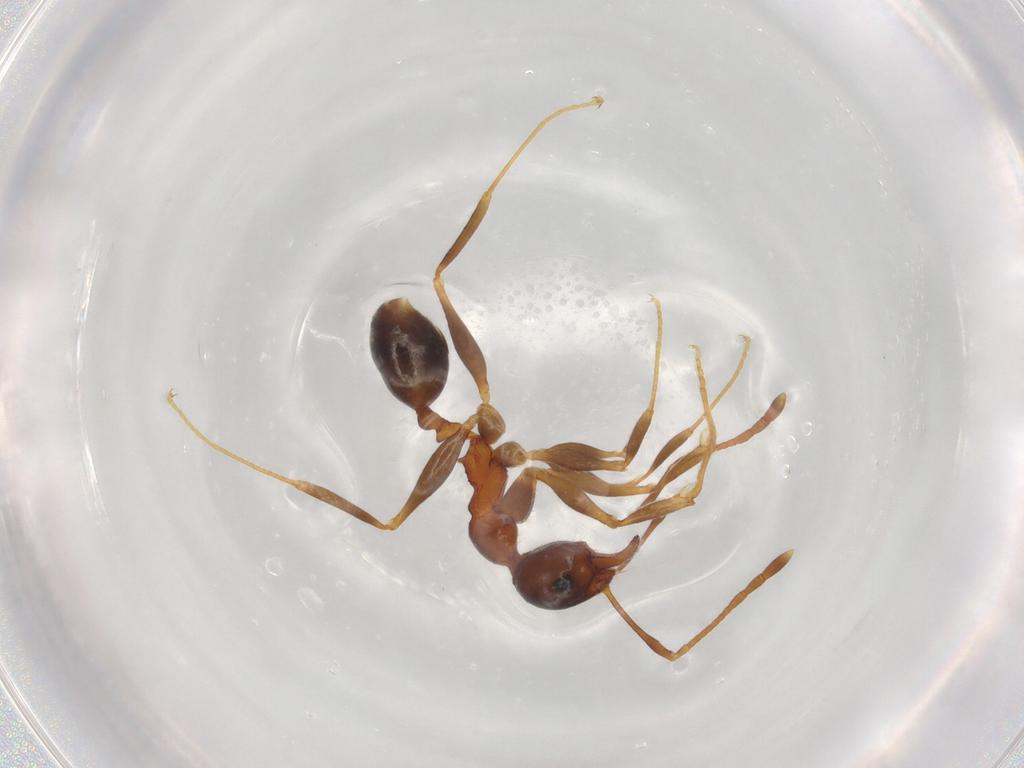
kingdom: Animalia
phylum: Arthropoda
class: Insecta
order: Hymenoptera
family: Formicidae
